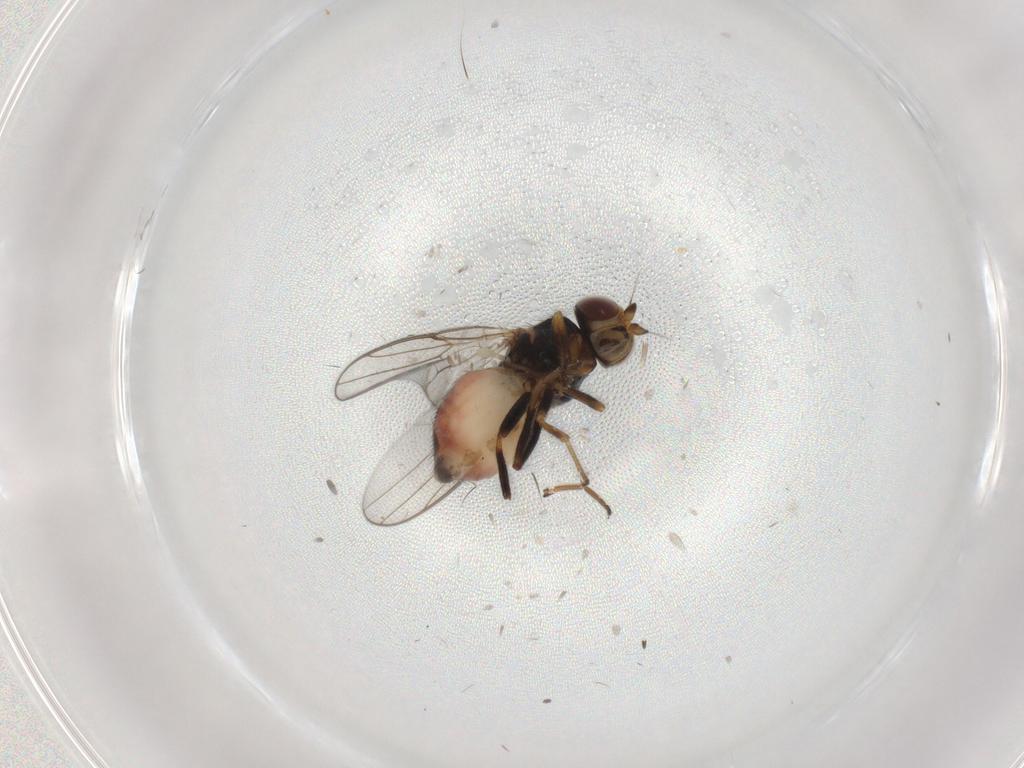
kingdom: Animalia
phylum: Arthropoda
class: Insecta
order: Diptera
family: Chloropidae
